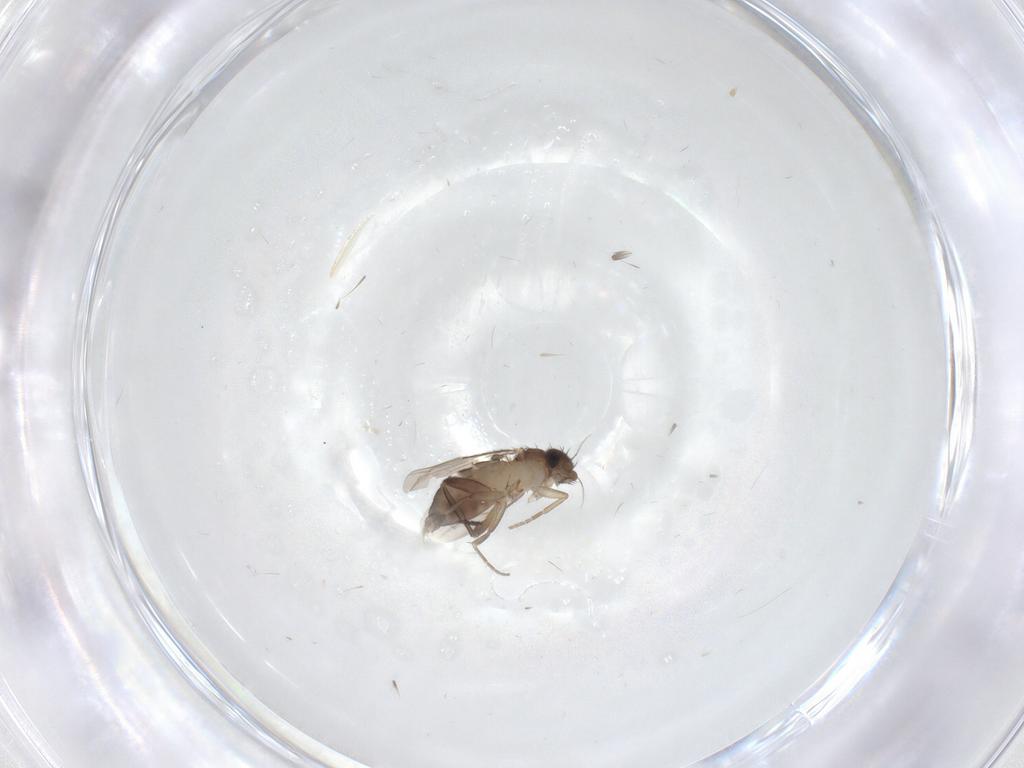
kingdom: Animalia
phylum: Arthropoda
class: Insecta
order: Diptera
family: Phoridae
